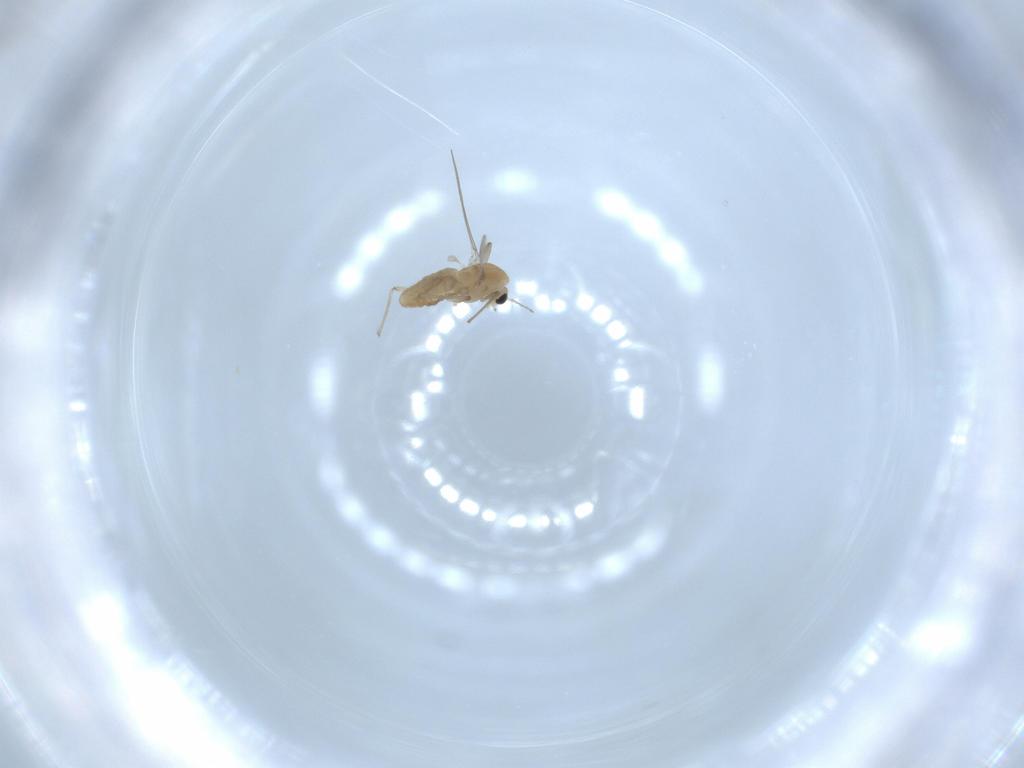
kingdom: Animalia
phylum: Arthropoda
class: Insecta
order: Diptera
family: Chironomidae
